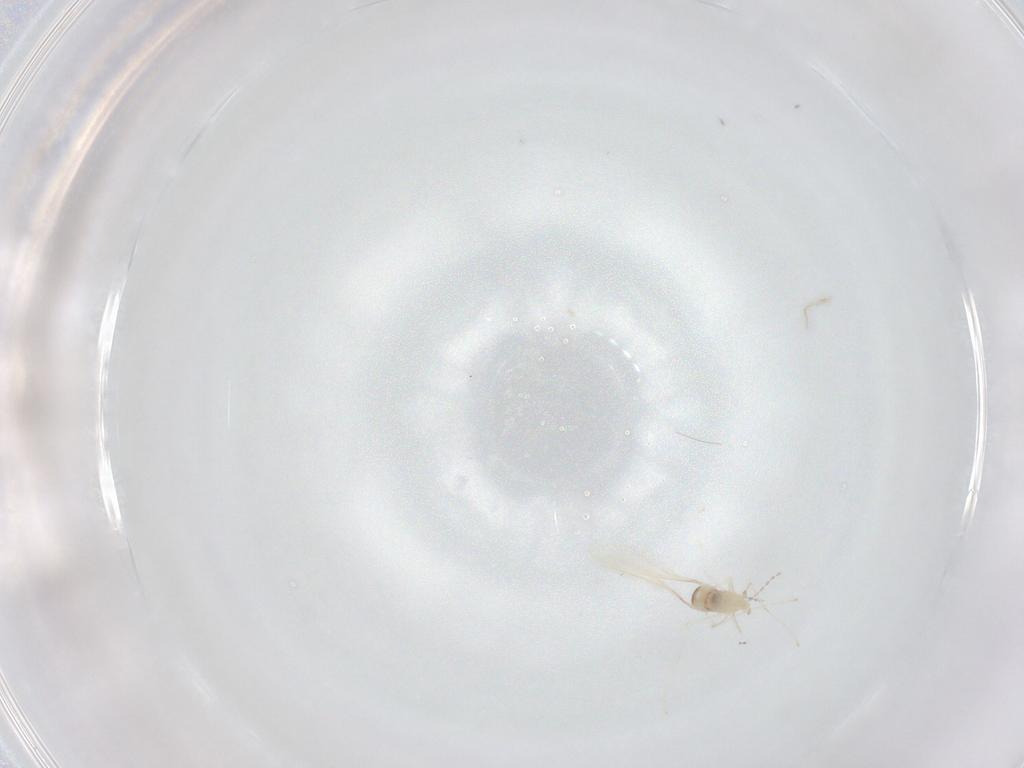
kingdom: Animalia
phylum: Arthropoda
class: Insecta
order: Diptera
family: Cecidomyiidae
